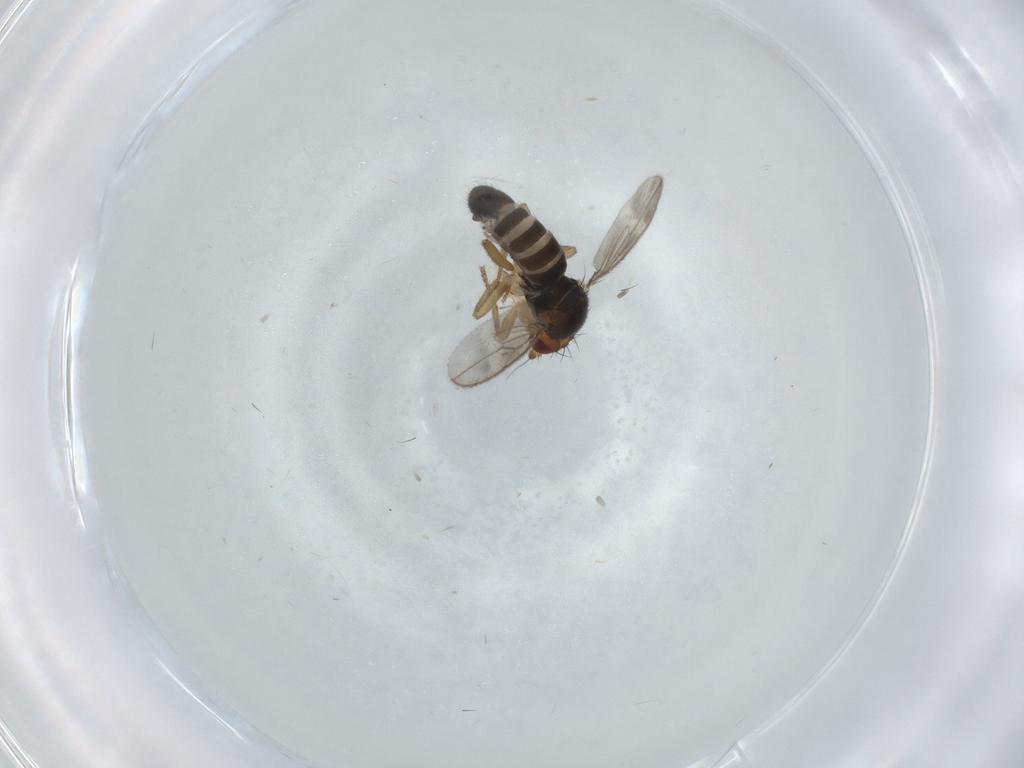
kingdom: Animalia
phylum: Arthropoda
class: Insecta
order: Diptera
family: Sphaeroceridae
